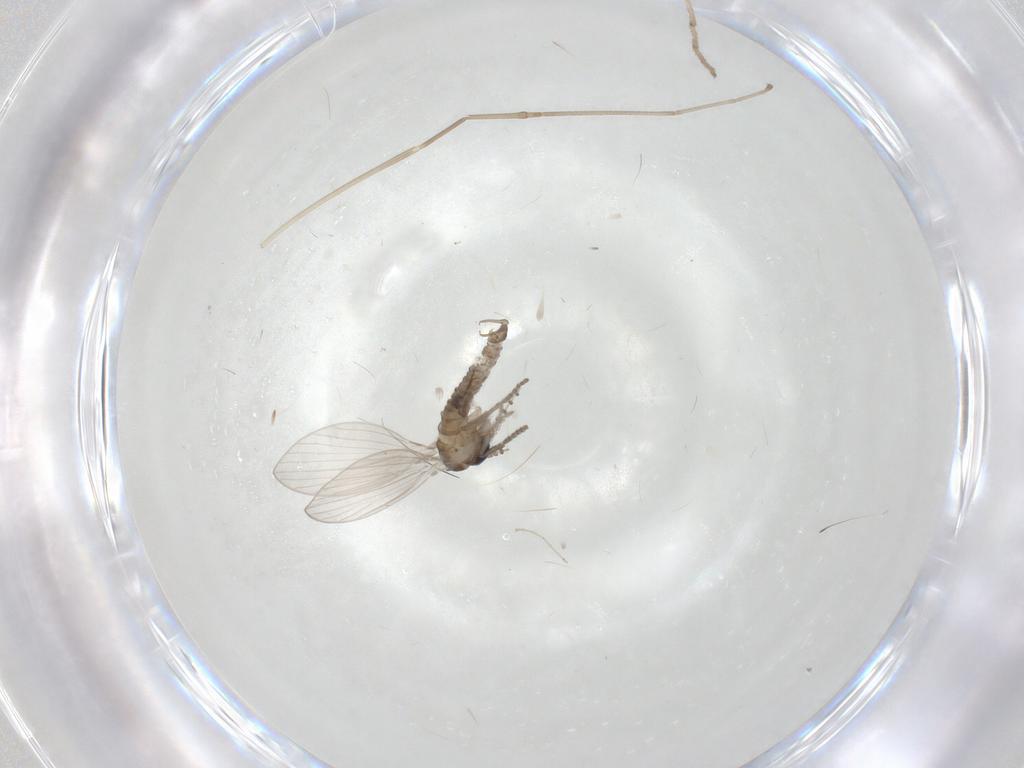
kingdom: Animalia
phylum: Arthropoda
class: Insecta
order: Diptera
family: Psychodidae
